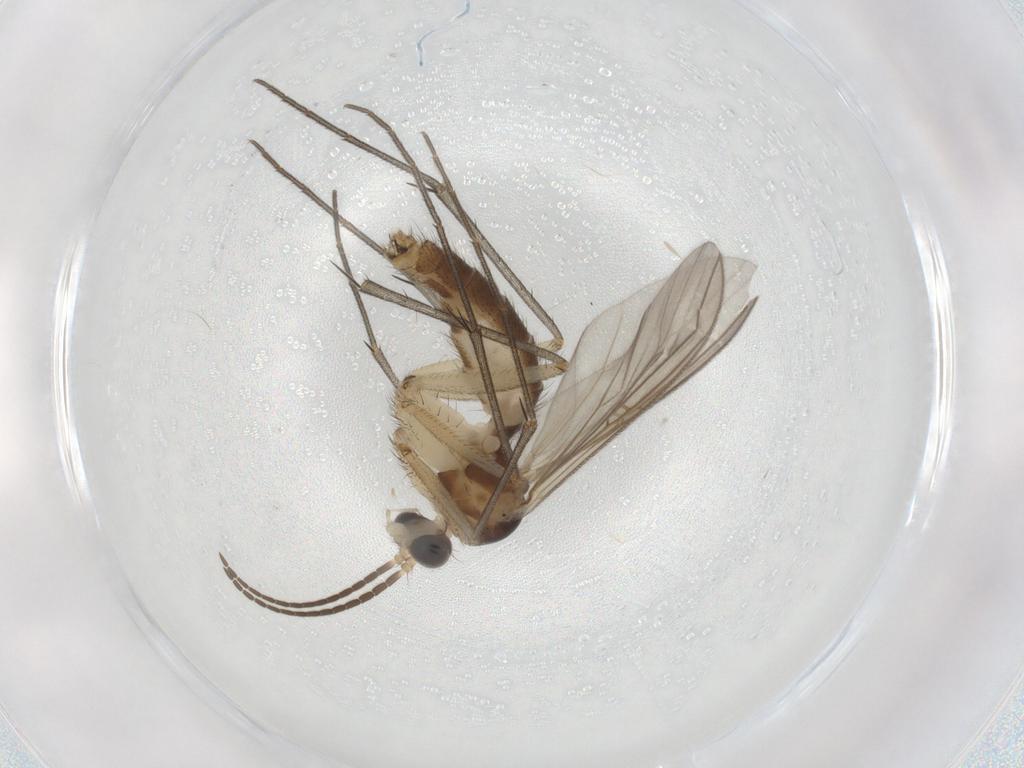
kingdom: Animalia
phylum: Arthropoda
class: Insecta
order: Diptera
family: Mycetophilidae
